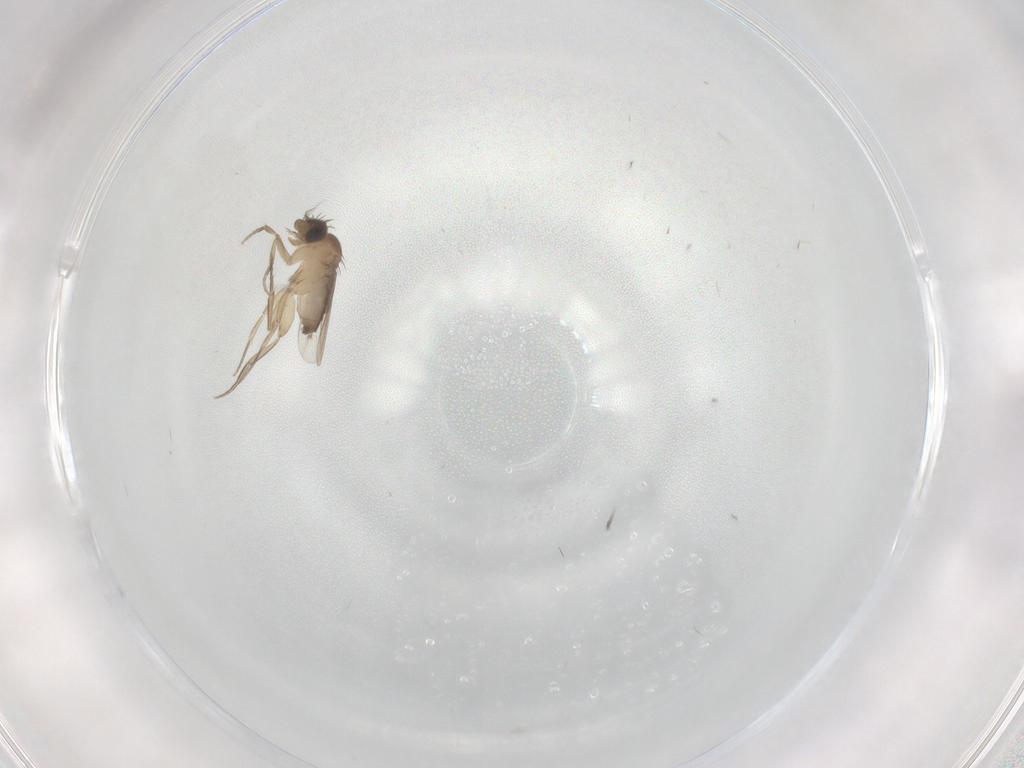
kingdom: Animalia
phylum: Arthropoda
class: Insecta
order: Diptera
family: Phoridae
